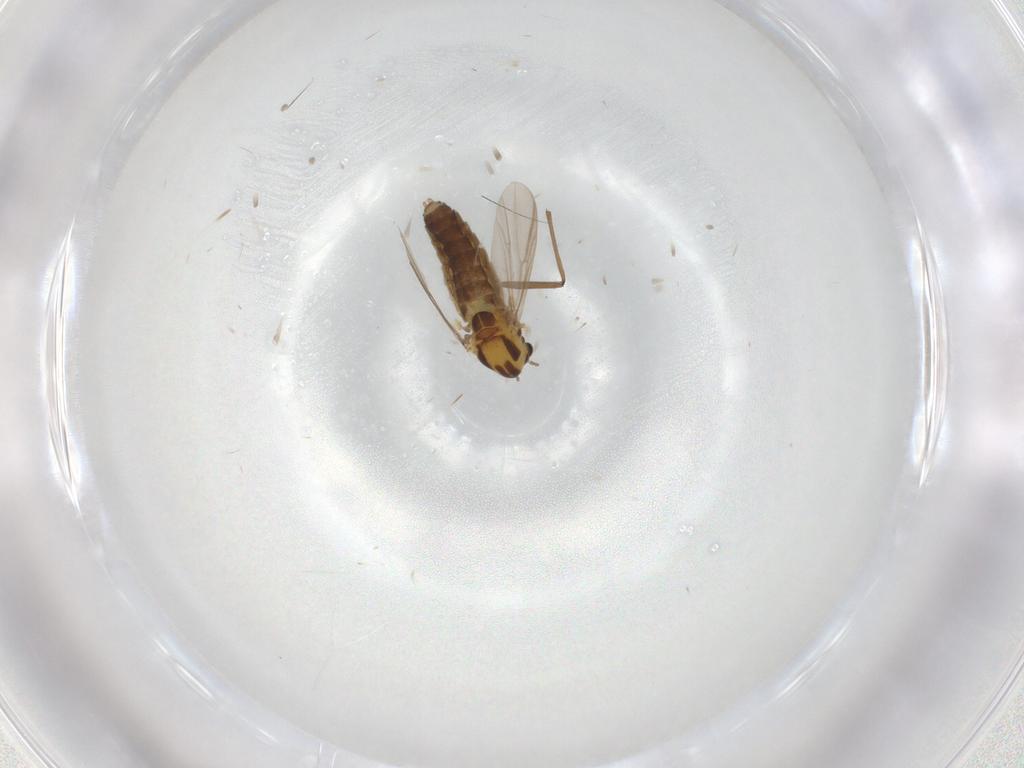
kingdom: Animalia
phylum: Arthropoda
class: Insecta
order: Diptera
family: Chironomidae
